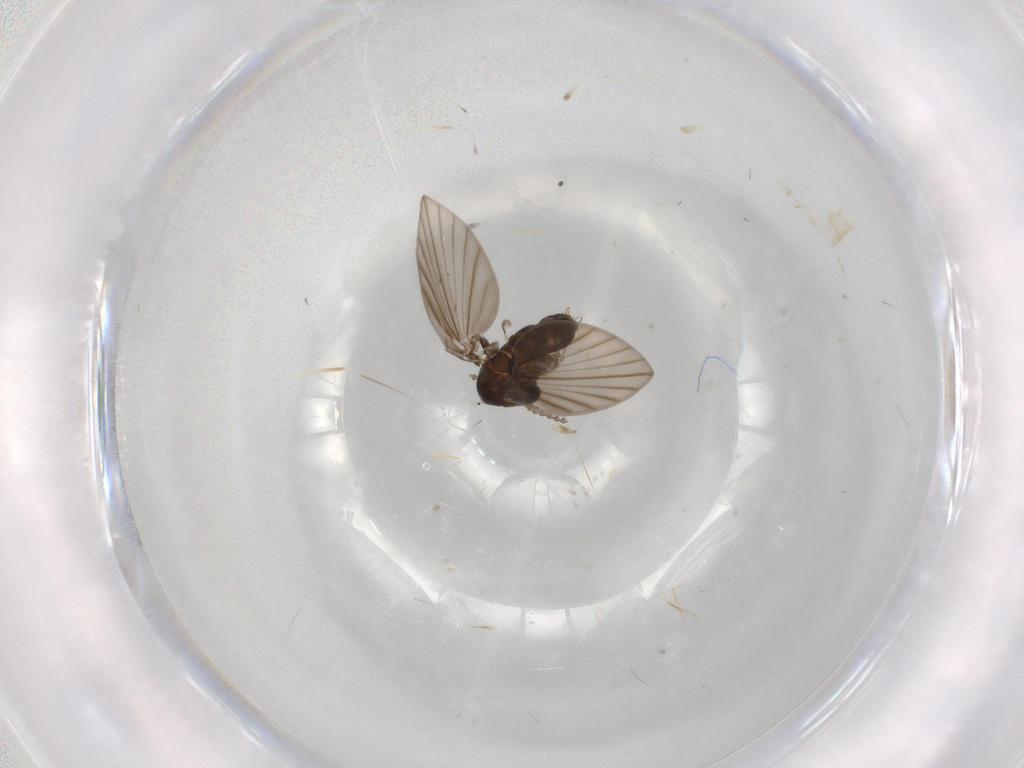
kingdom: Animalia
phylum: Arthropoda
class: Insecta
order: Diptera
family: Psychodidae
